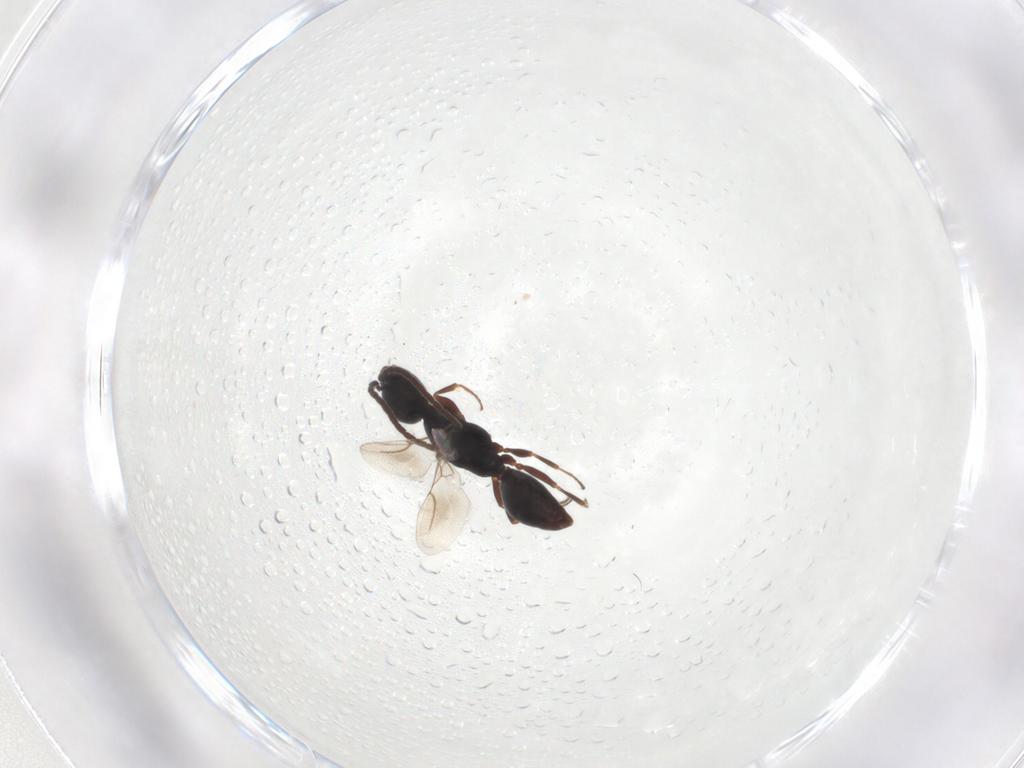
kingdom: Animalia
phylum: Arthropoda
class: Insecta
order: Hymenoptera
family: Bethylidae
